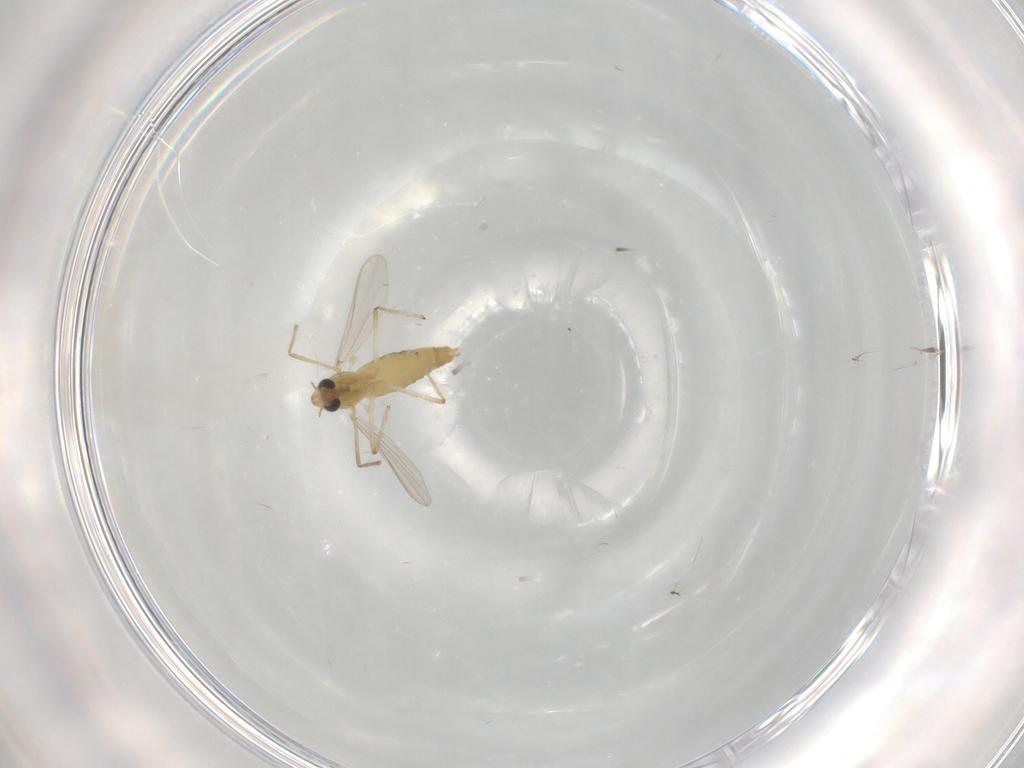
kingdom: Animalia
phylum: Arthropoda
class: Insecta
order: Diptera
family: Chironomidae
